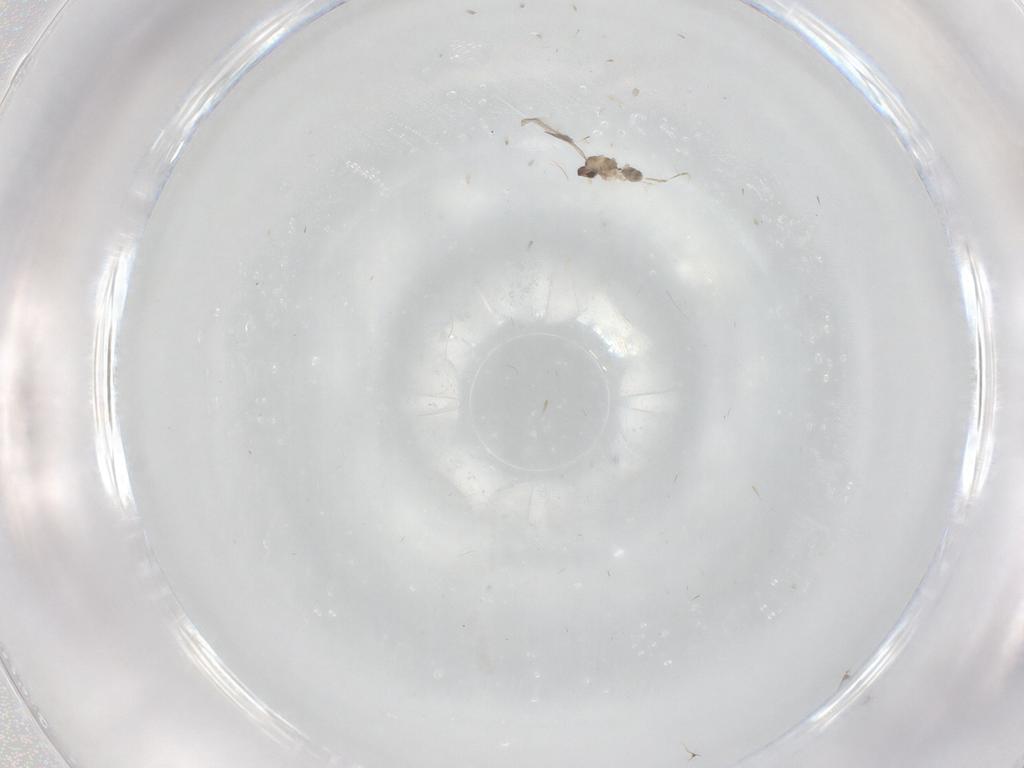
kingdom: Animalia
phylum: Arthropoda
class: Insecta
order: Diptera
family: Cecidomyiidae
